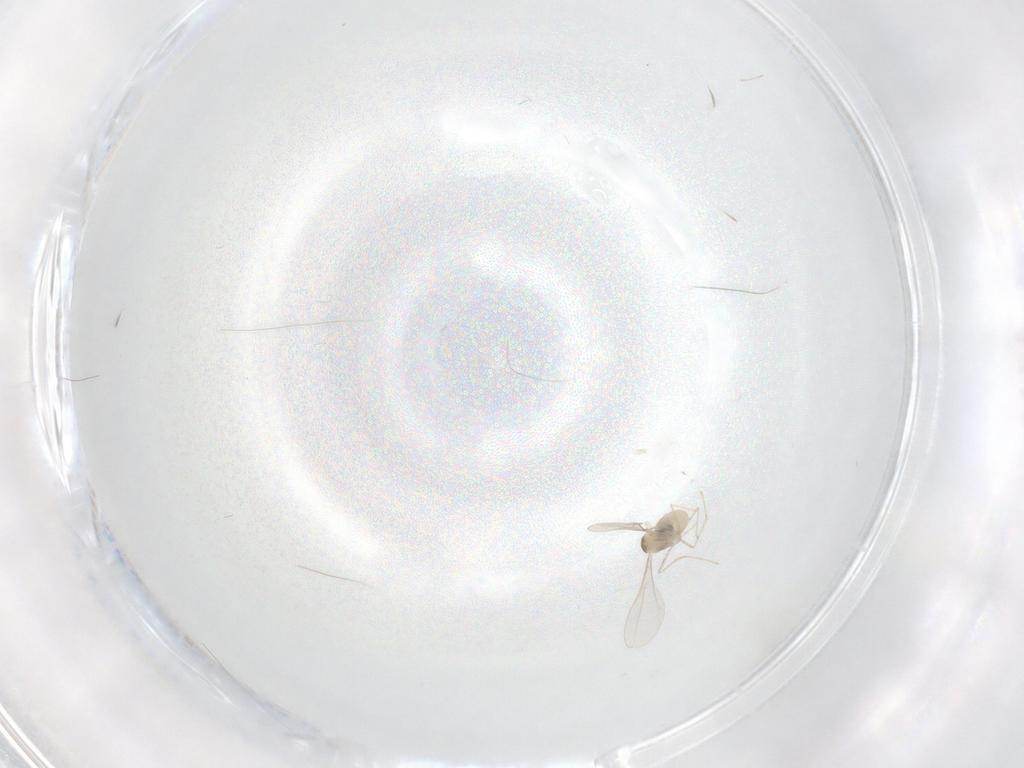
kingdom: Animalia
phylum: Arthropoda
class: Insecta
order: Diptera
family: Cecidomyiidae
